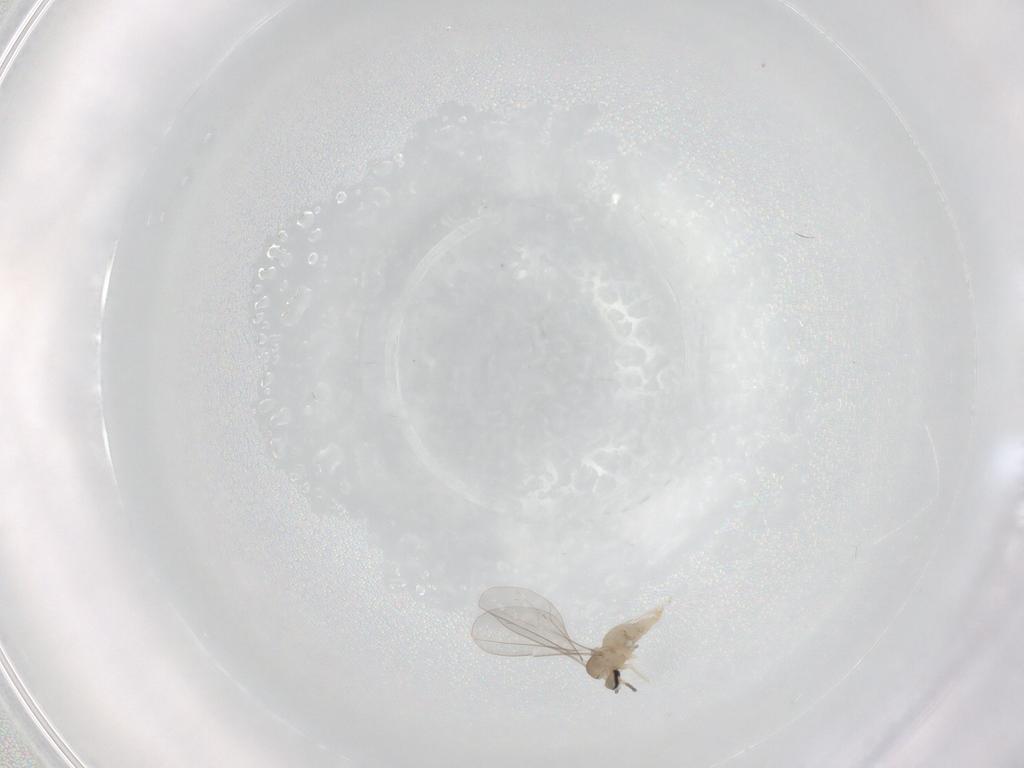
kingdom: Animalia
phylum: Arthropoda
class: Insecta
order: Diptera
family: Cecidomyiidae
